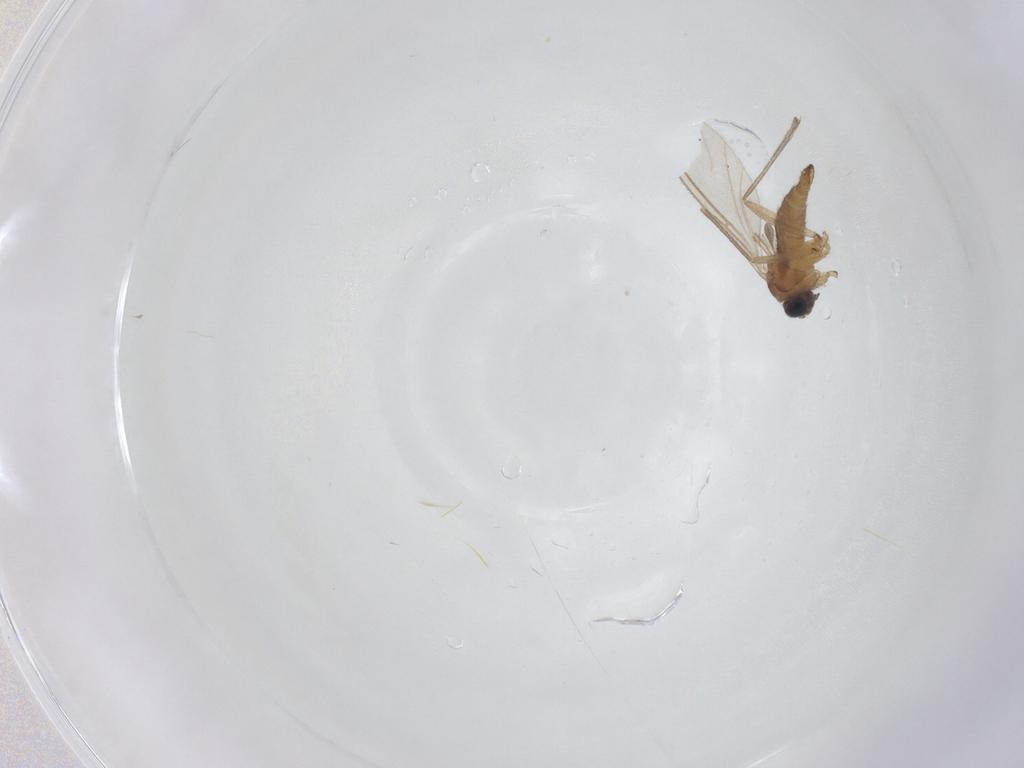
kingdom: Animalia
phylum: Arthropoda
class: Insecta
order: Diptera
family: Sciaridae
